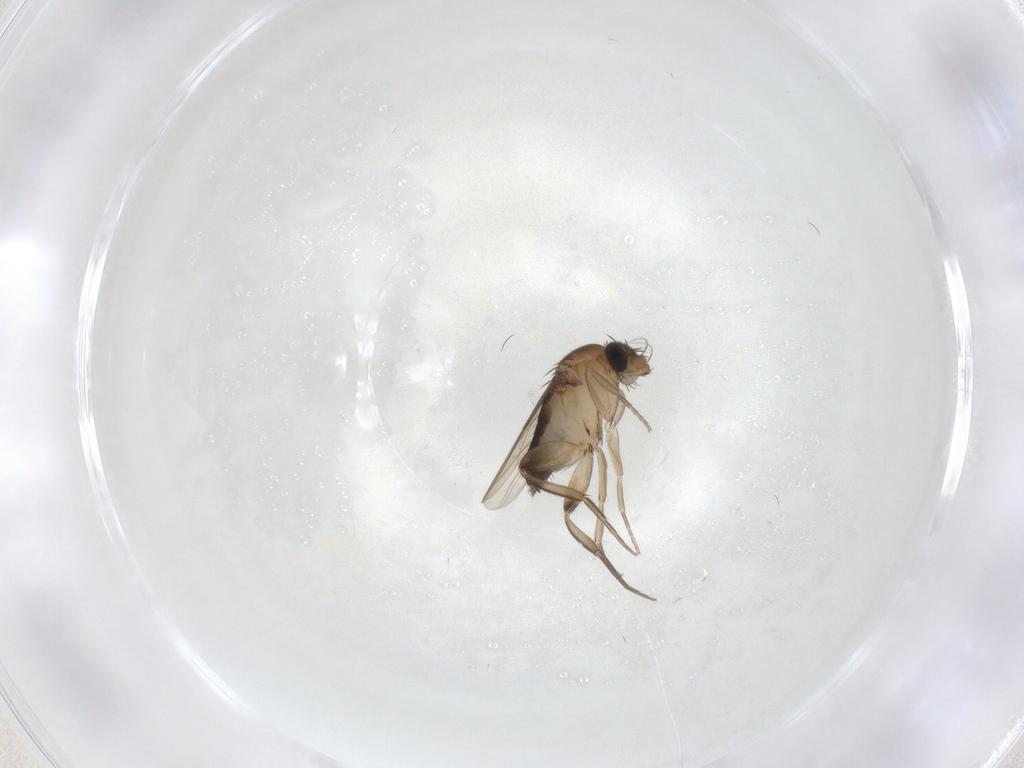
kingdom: Animalia
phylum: Arthropoda
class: Insecta
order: Diptera
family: Phoridae
